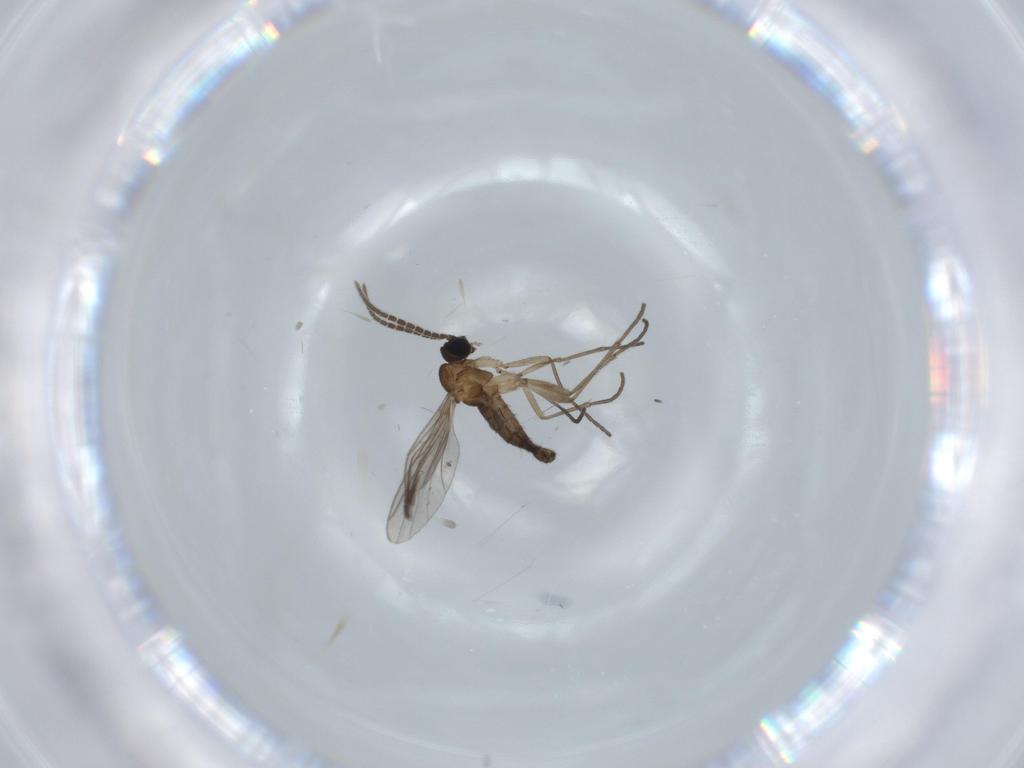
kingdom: Animalia
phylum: Arthropoda
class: Insecta
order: Diptera
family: Sciaridae
